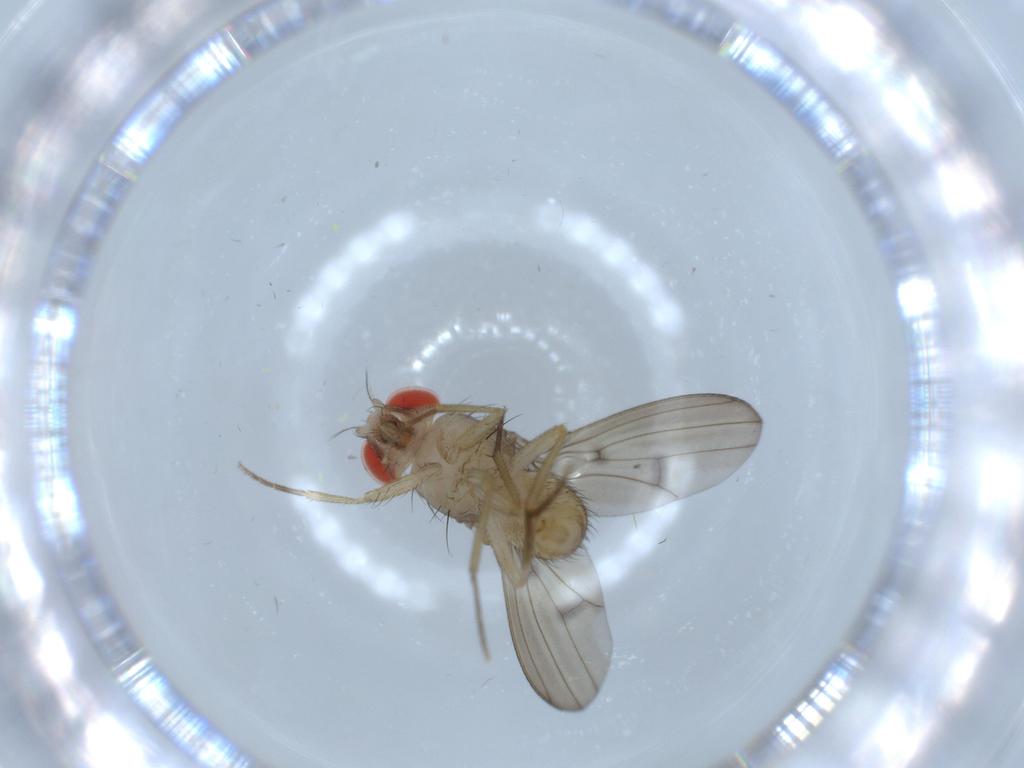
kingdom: Animalia
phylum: Arthropoda
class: Insecta
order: Diptera
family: Drosophilidae
